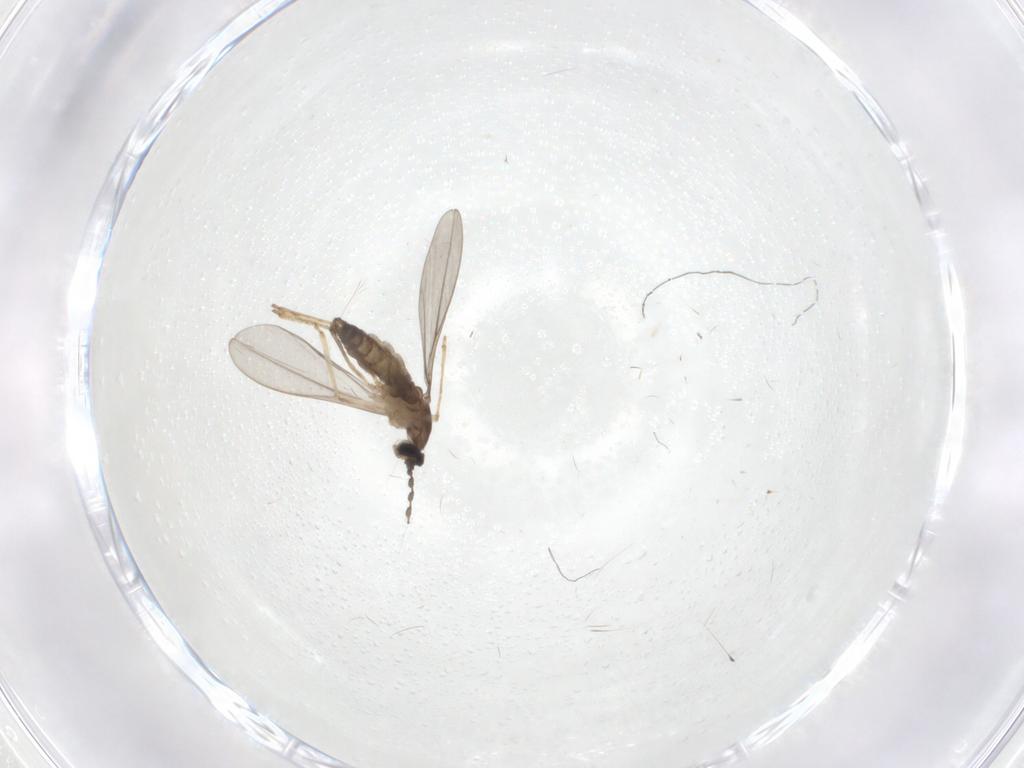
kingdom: Animalia
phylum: Arthropoda
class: Insecta
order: Diptera
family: Cecidomyiidae
